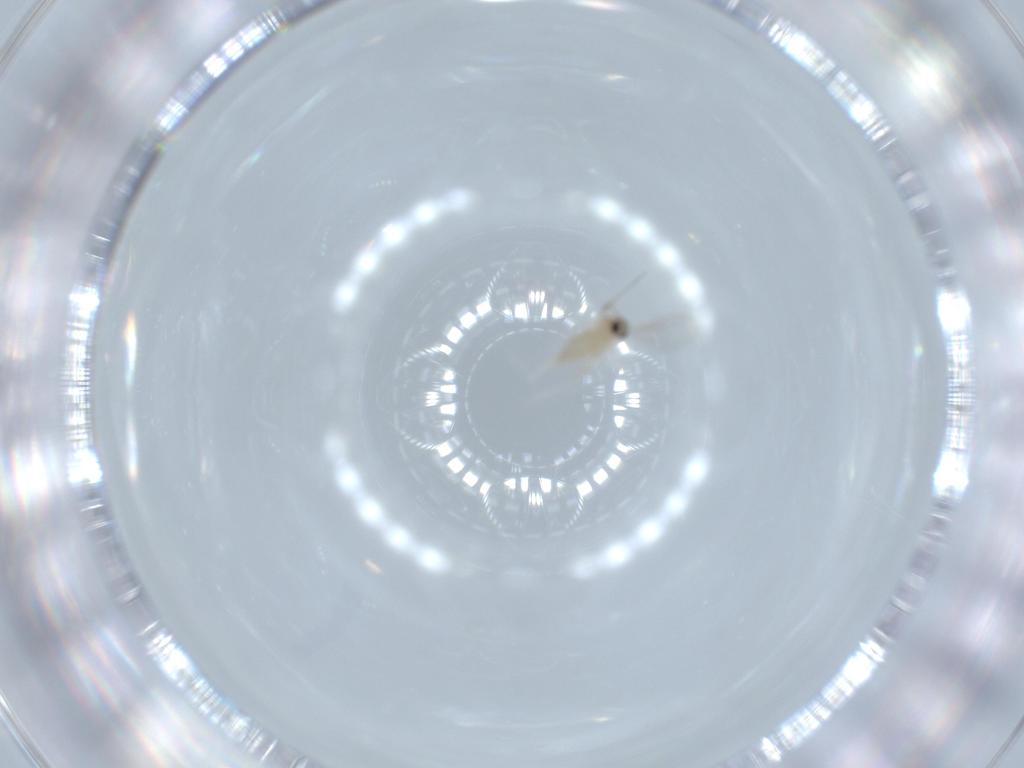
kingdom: Animalia
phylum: Arthropoda
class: Insecta
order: Diptera
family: Cecidomyiidae
